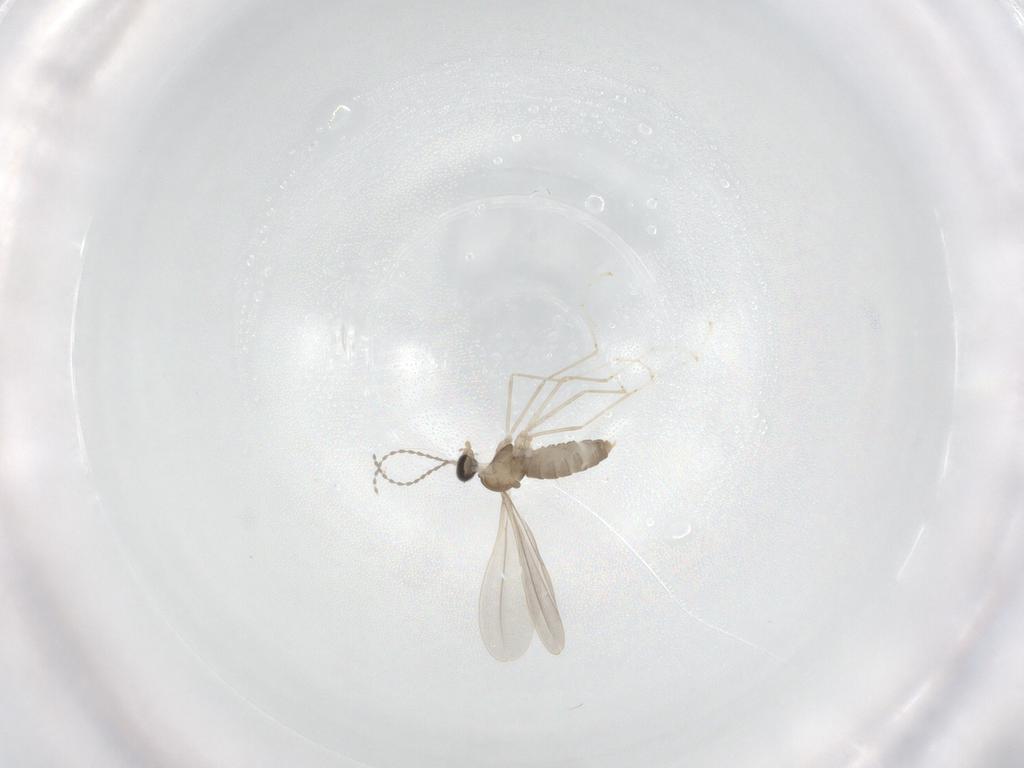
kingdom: Animalia
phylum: Arthropoda
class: Insecta
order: Diptera
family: Cecidomyiidae
